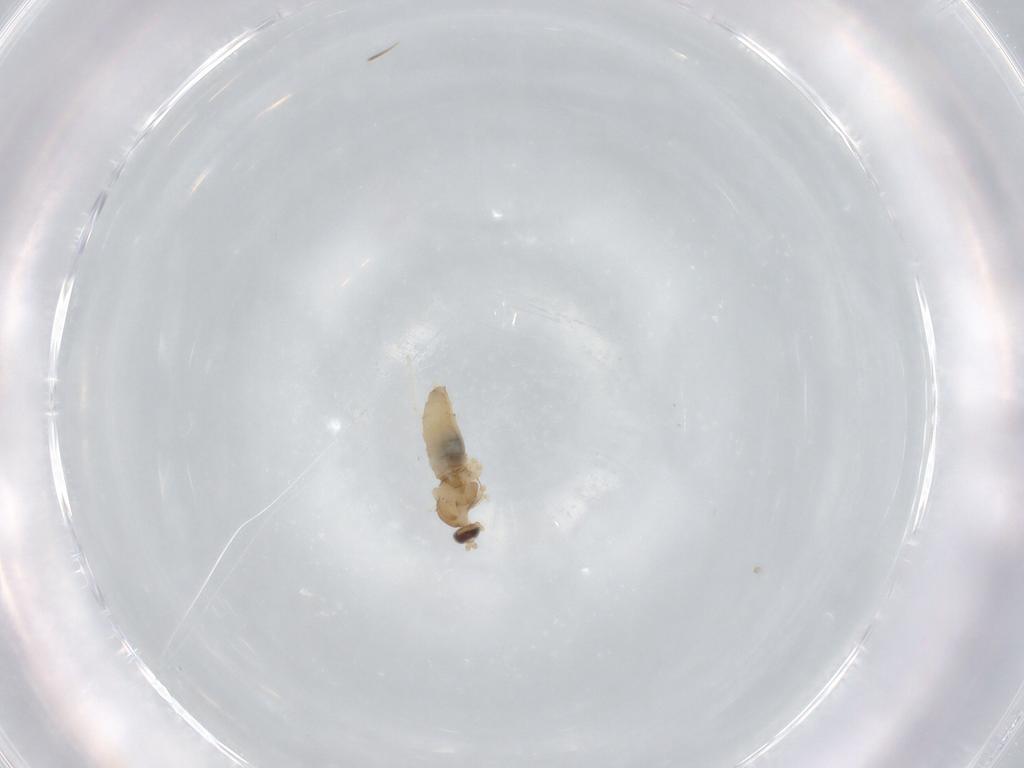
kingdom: Animalia
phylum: Arthropoda
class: Insecta
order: Diptera
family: Cecidomyiidae
